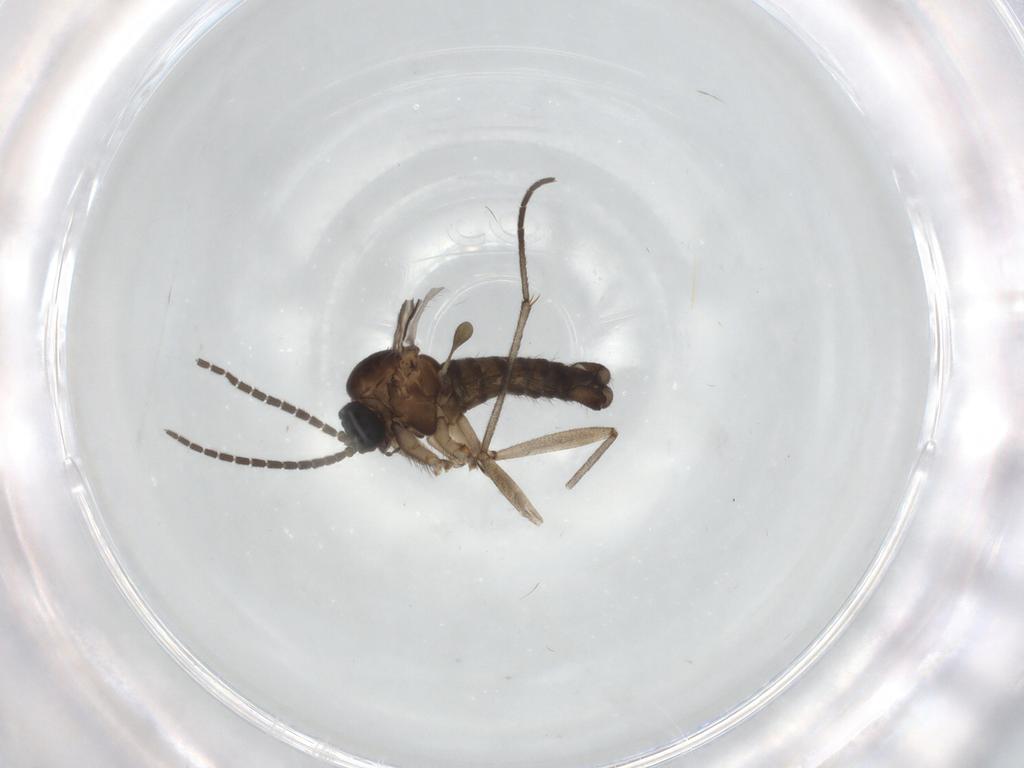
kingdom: Animalia
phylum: Arthropoda
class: Insecta
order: Diptera
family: Sciaridae
